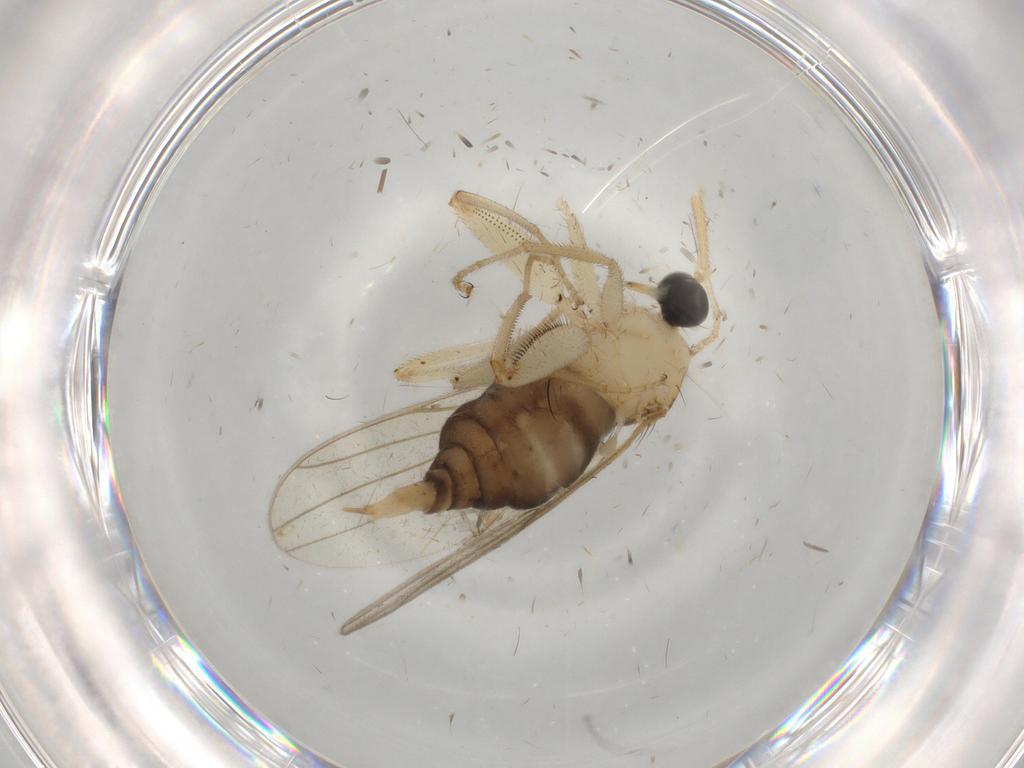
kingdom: Animalia
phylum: Arthropoda
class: Insecta
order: Diptera
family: Hybotidae
